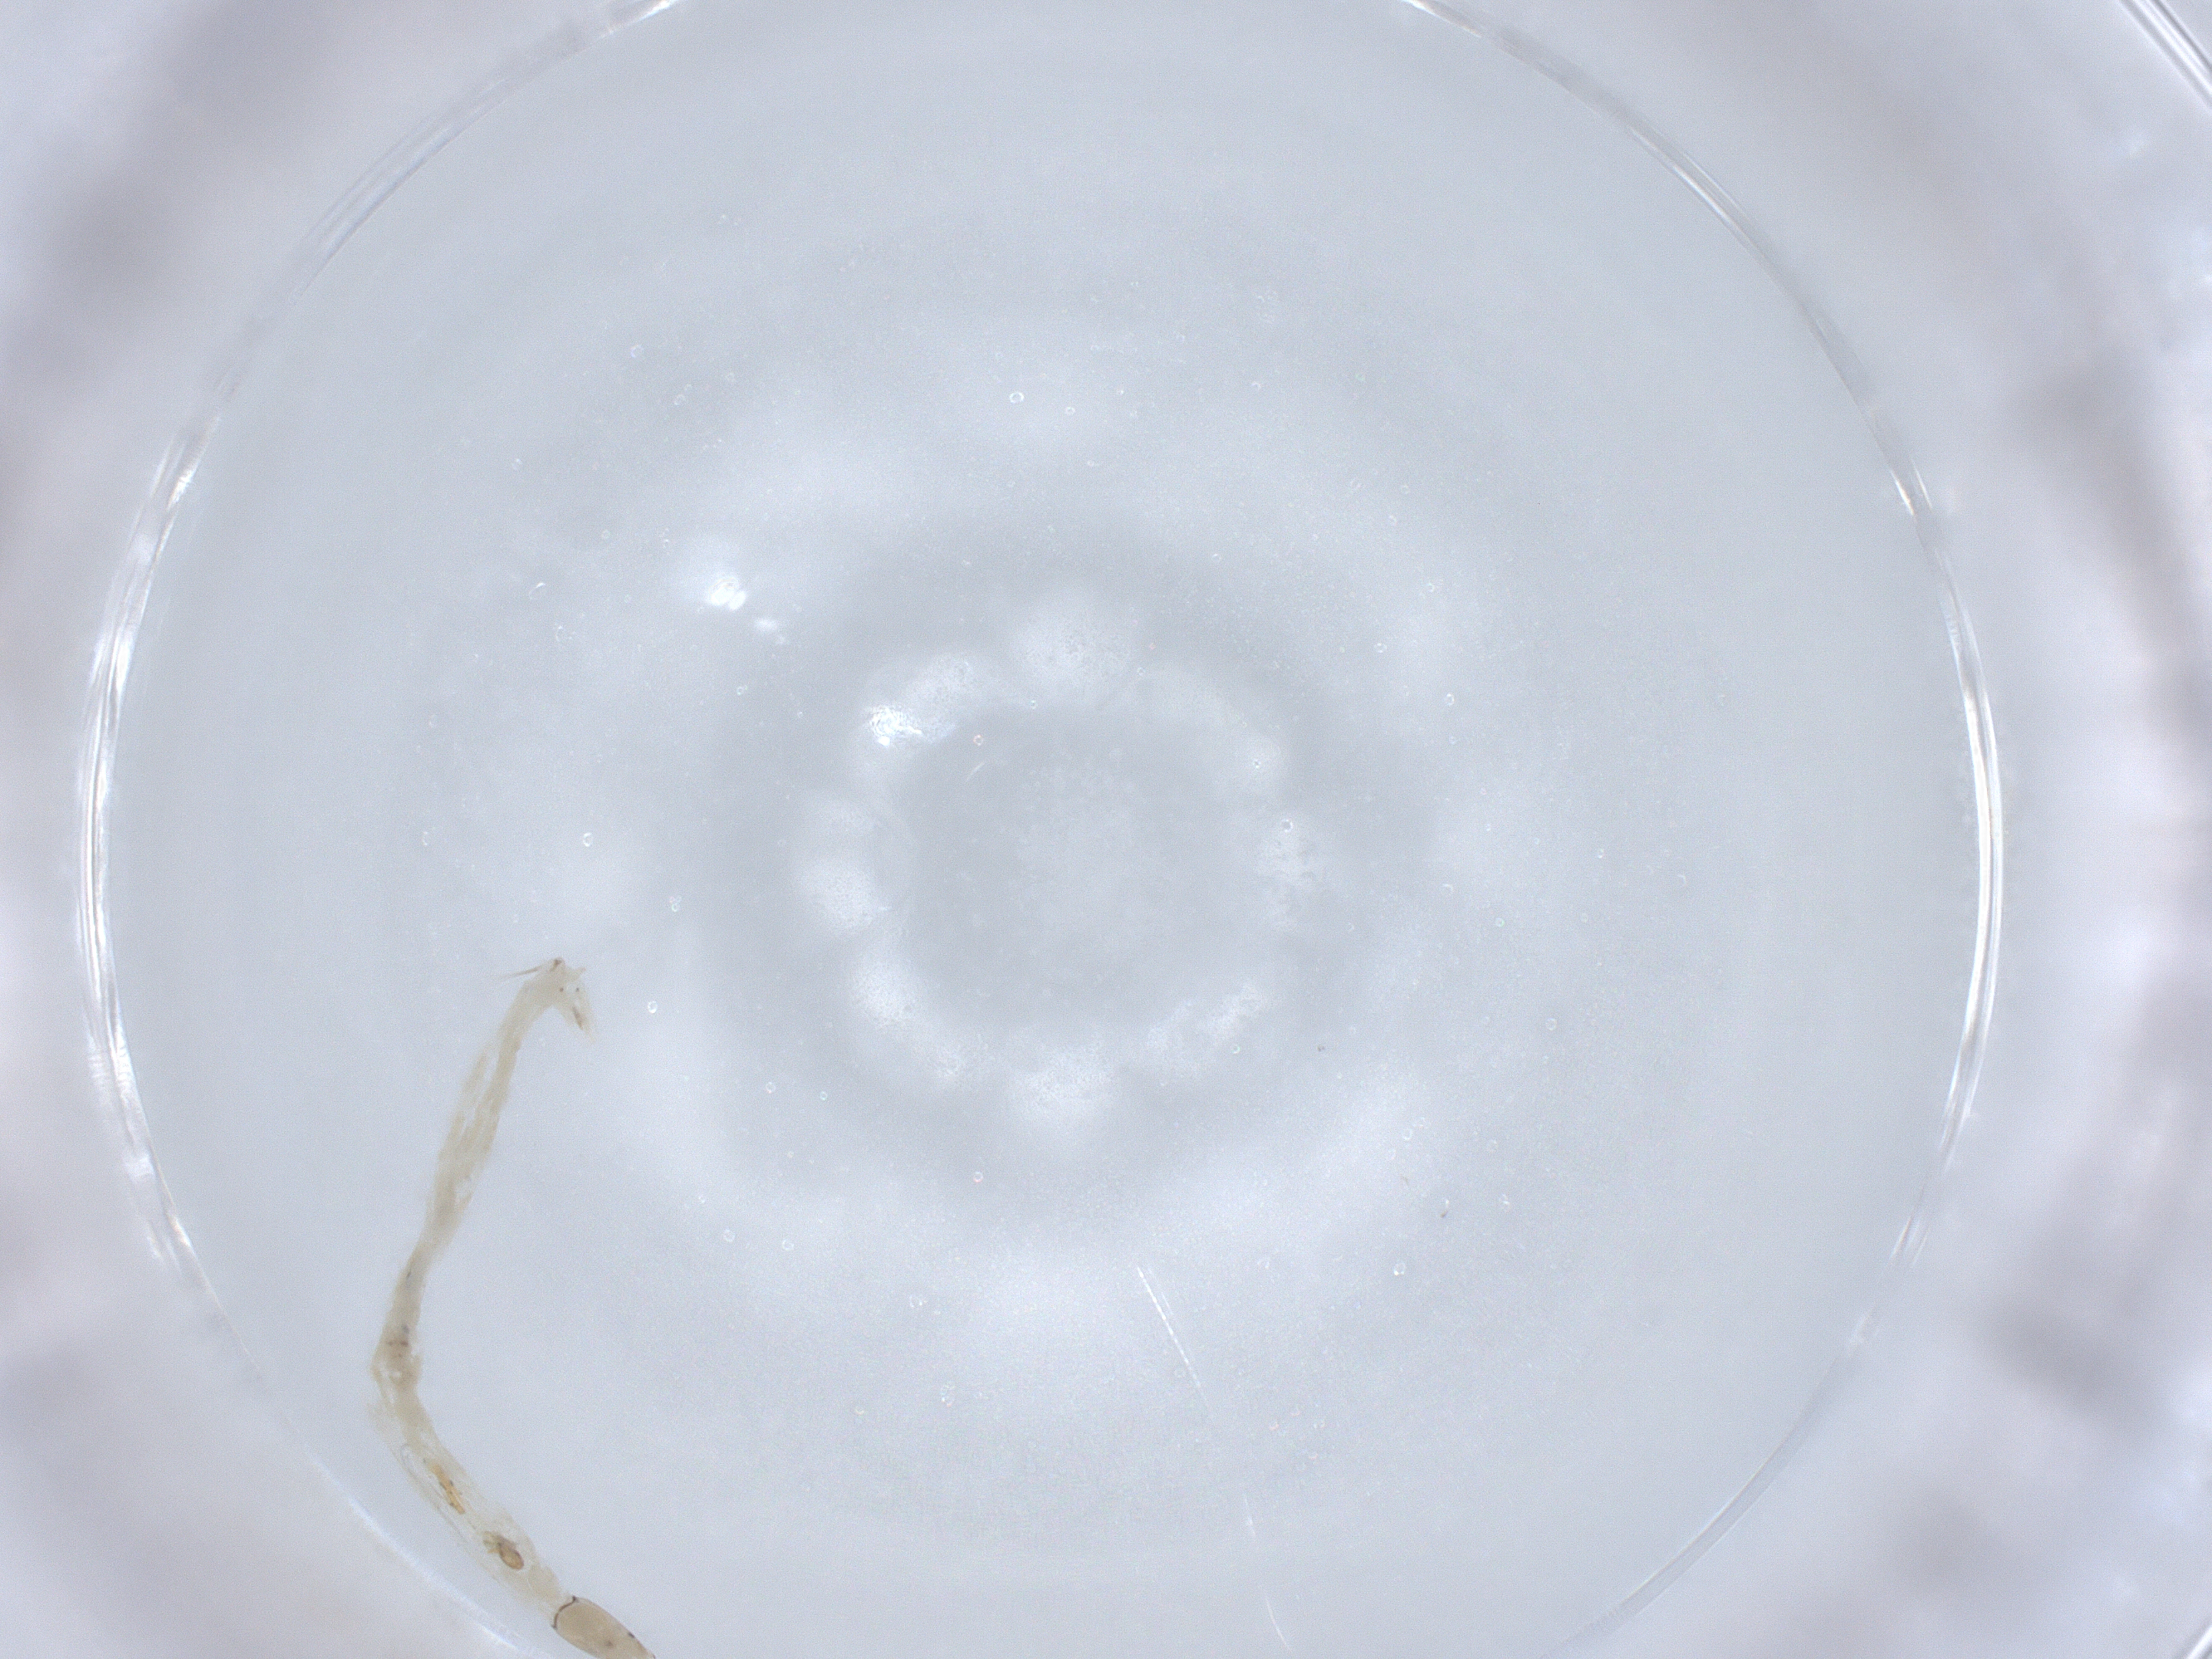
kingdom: Animalia
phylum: Arthropoda
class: Insecta
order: Diptera
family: Chironomidae
